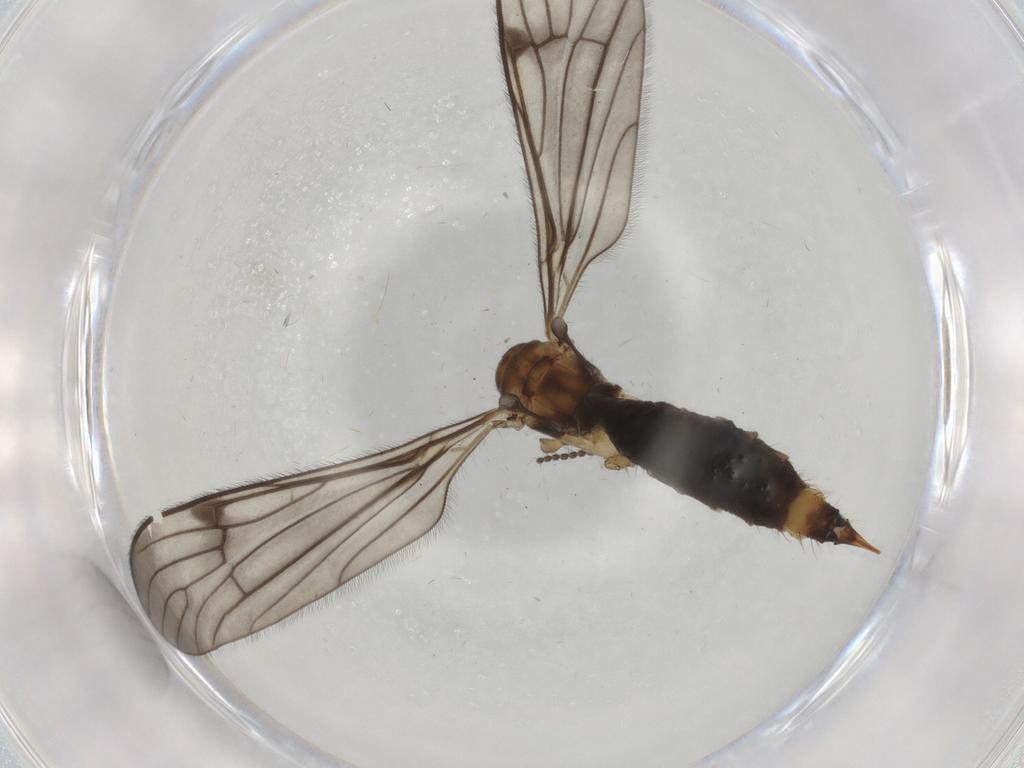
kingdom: Animalia
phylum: Arthropoda
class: Insecta
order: Diptera
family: Limoniidae
